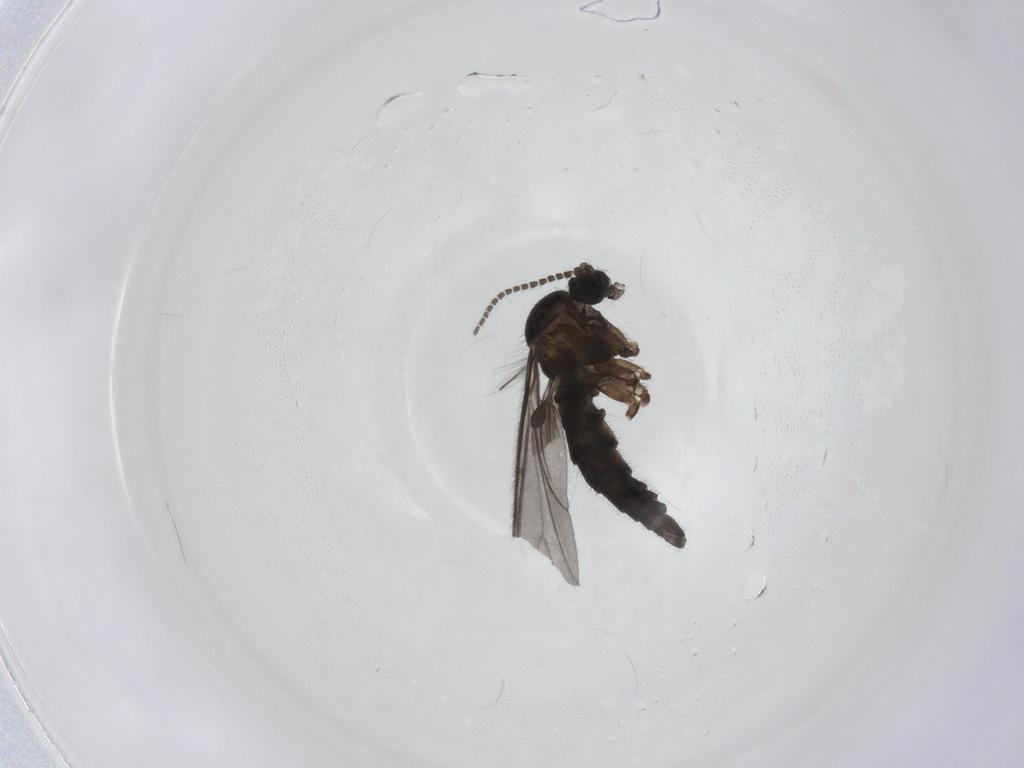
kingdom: Animalia
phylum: Arthropoda
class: Insecta
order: Diptera
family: Sciaridae
